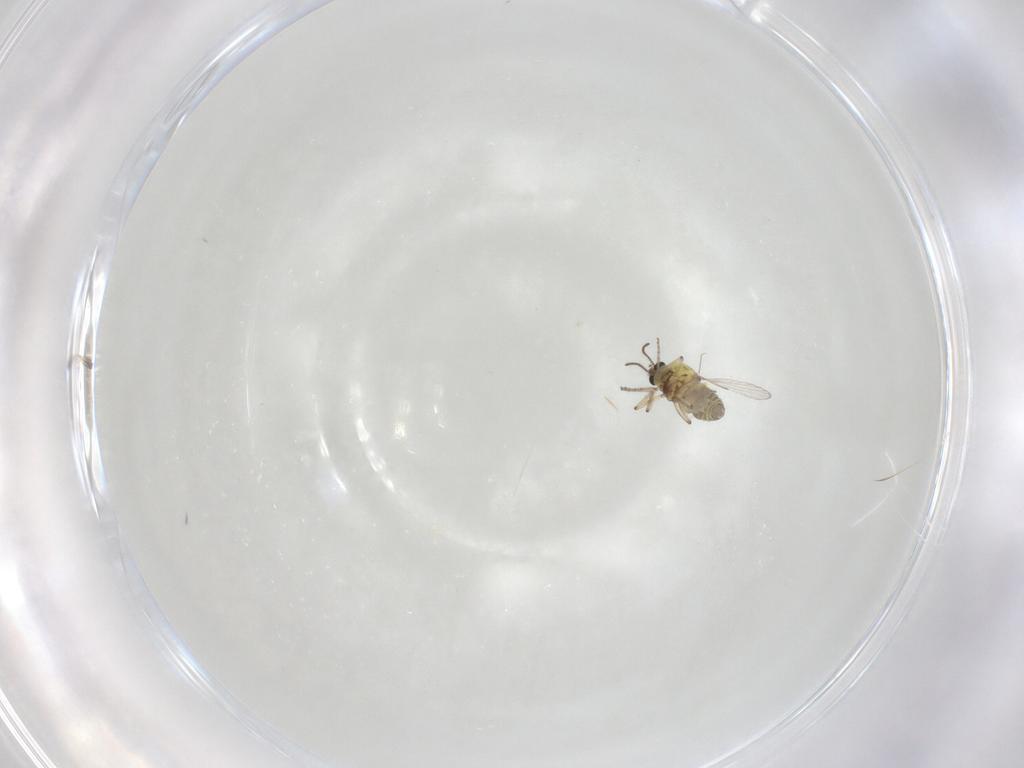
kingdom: Animalia
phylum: Arthropoda
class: Insecta
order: Diptera
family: Ceratopogonidae
